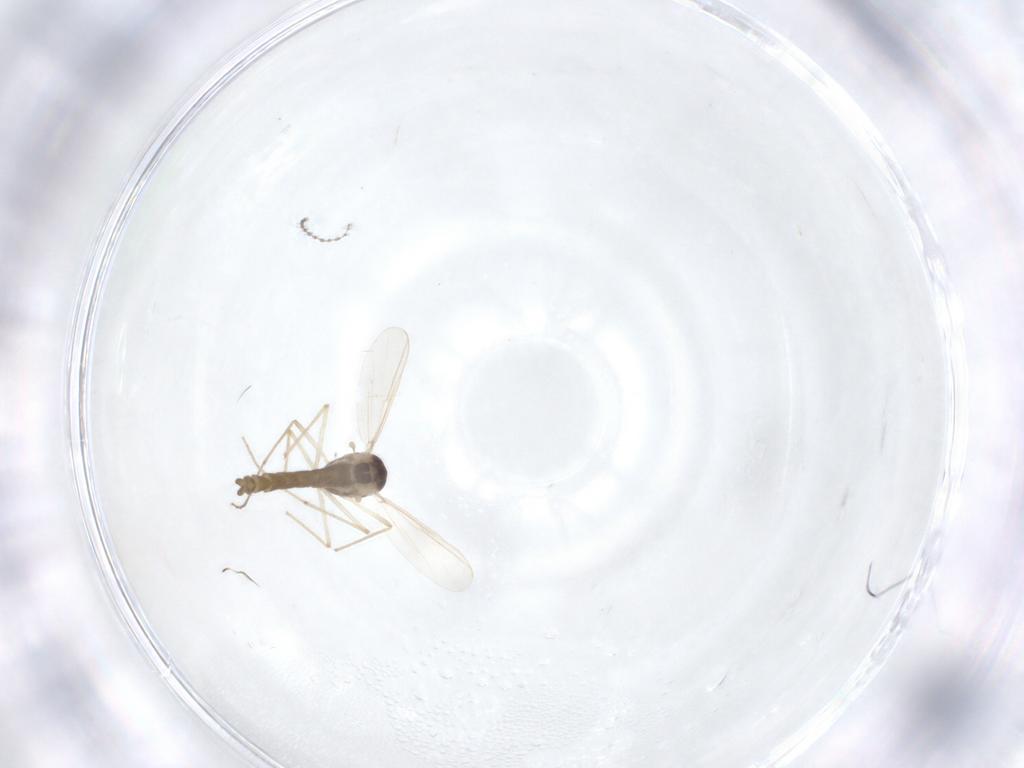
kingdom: Animalia
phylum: Arthropoda
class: Insecta
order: Diptera
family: Chironomidae
